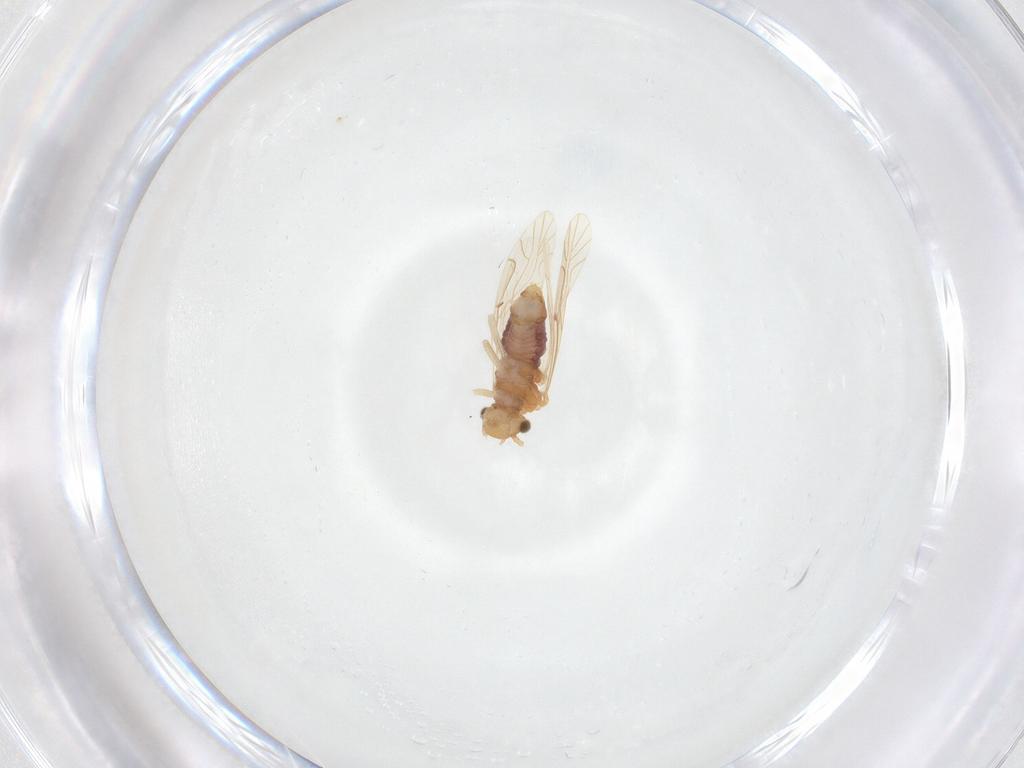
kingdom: Animalia
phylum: Arthropoda
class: Insecta
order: Psocodea
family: Lachesillidae
